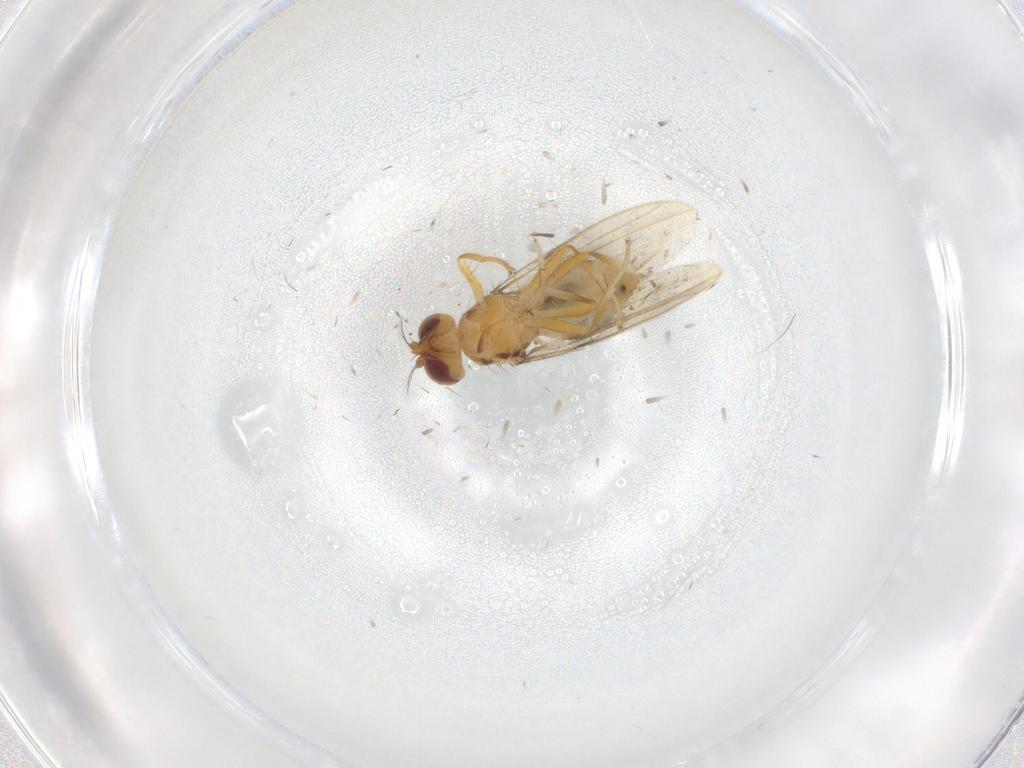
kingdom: Animalia
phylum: Arthropoda
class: Insecta
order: Diptera
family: Periscelididae
